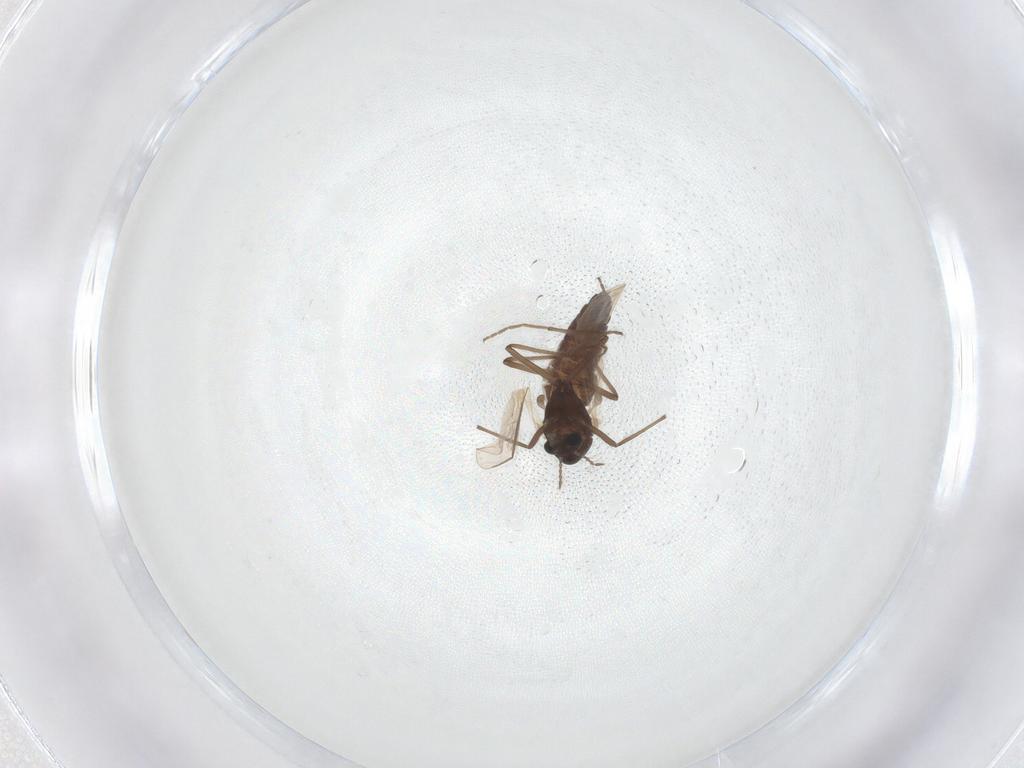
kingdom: Animalia
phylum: Arthropoda
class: Insecta
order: Diptera
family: Chironomidae
